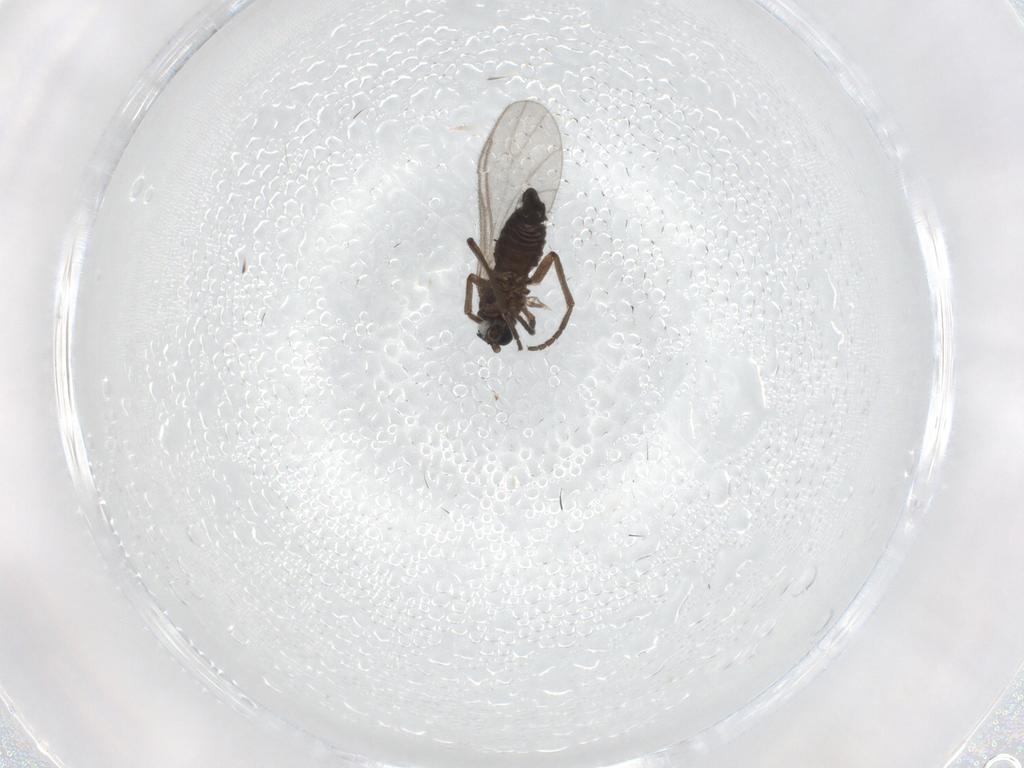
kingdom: Animalia
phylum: Arthropoda
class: Insecta
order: Diptera
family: Sciaridae
